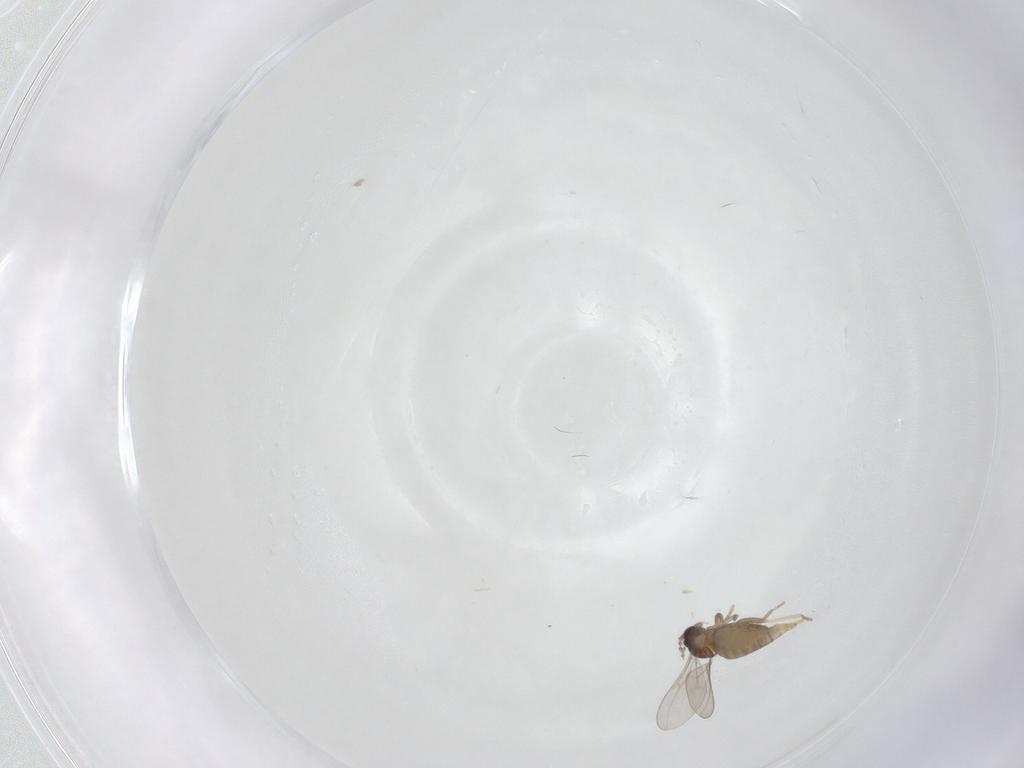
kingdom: Animalia
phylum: Arthropoda
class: Insecta
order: Diptera
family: Cecidomyiidae
